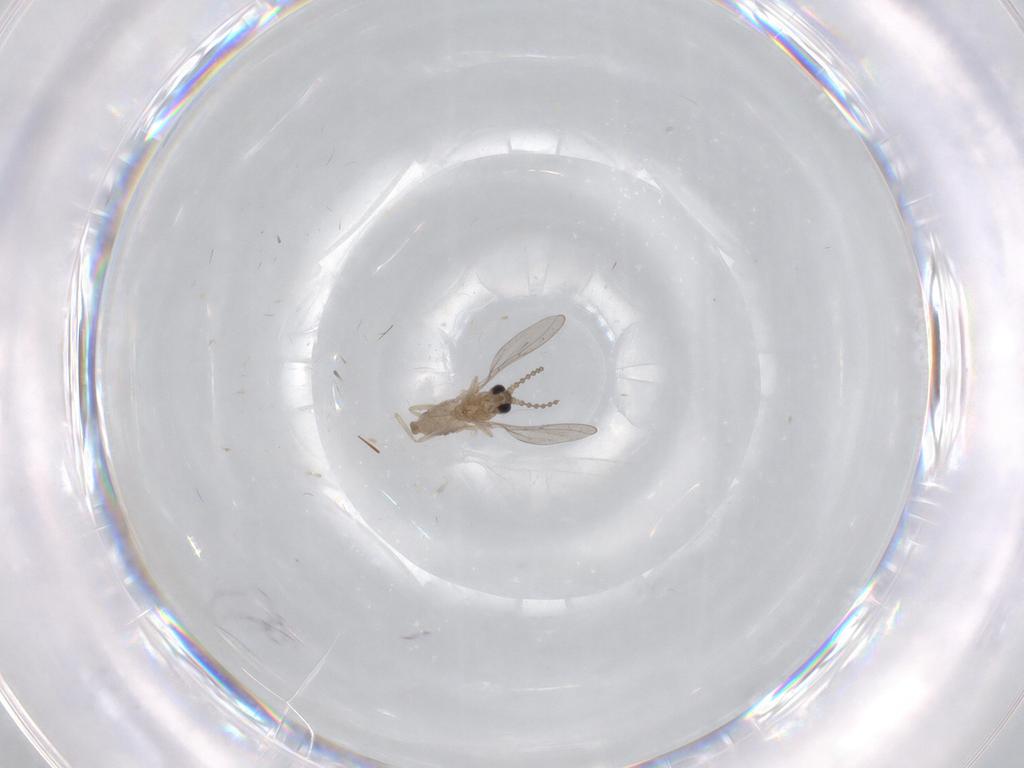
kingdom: Animalia
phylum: Arthropoda
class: Insecta
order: Diptera
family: Cecidomyiidae
